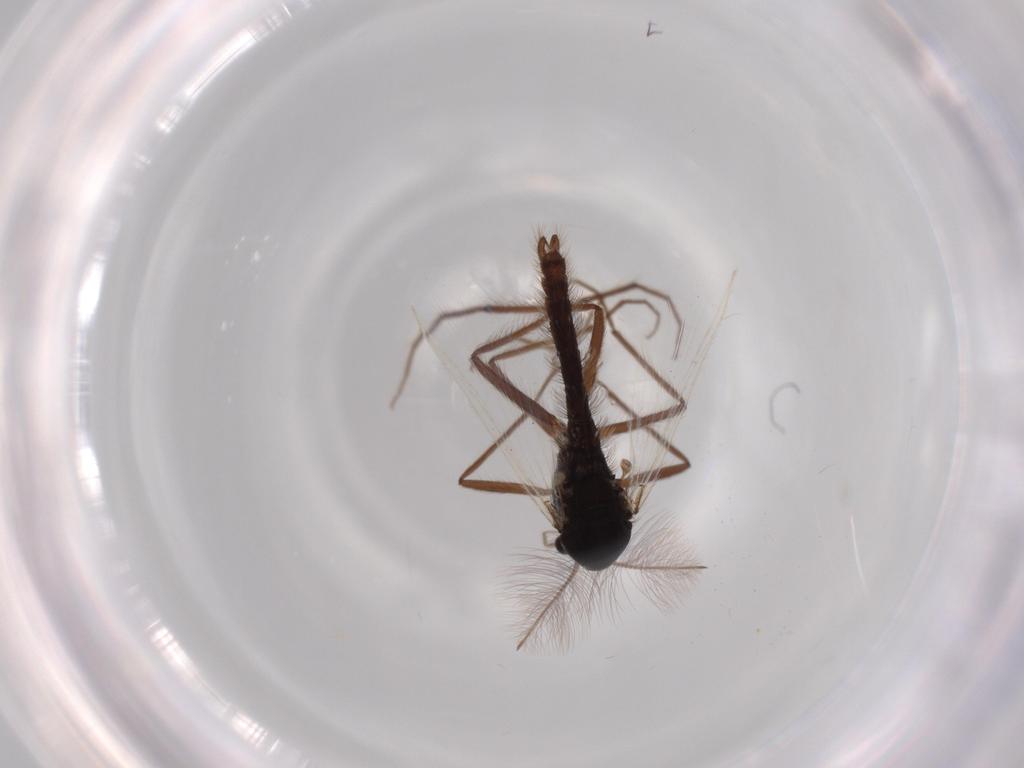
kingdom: Animalia
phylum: Arthropoda
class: Insecta
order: Diptera
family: Chironomidae
